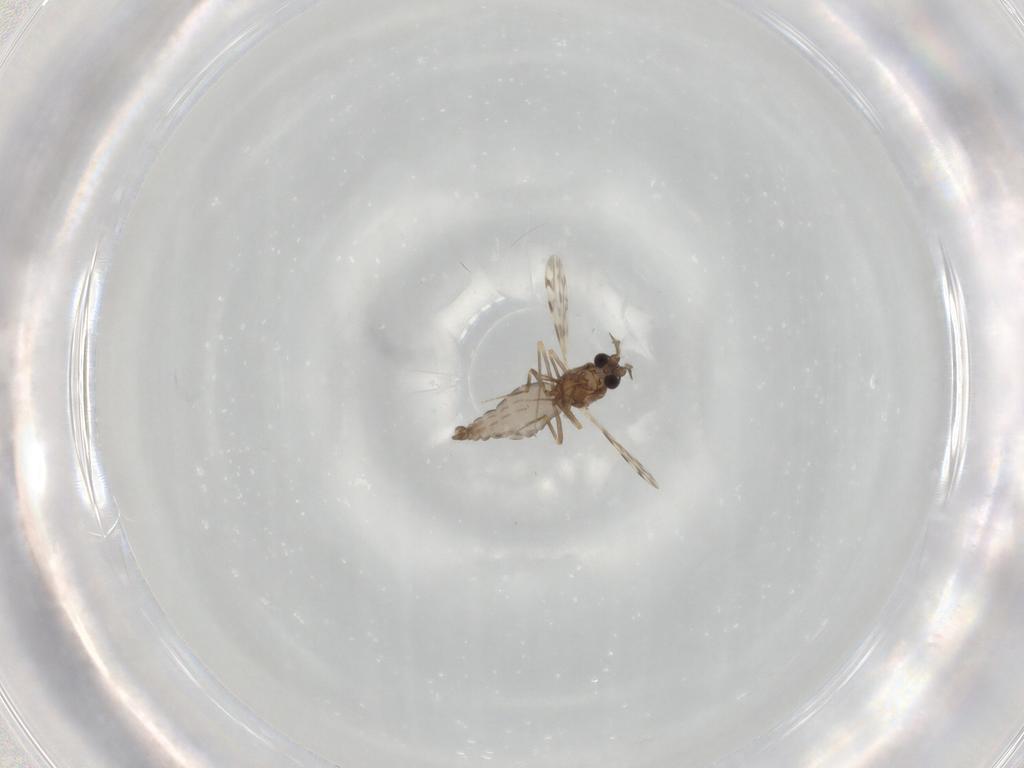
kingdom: Animalia
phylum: Arthropoda
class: Insecta
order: Diptera
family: Ceratopogonidae
